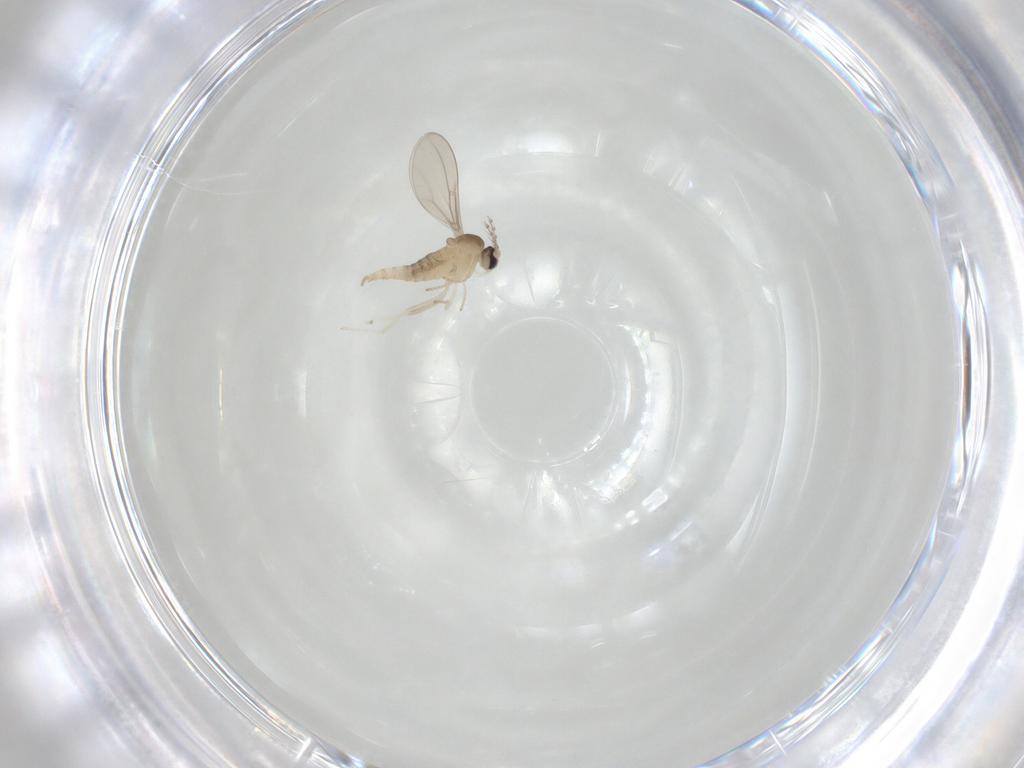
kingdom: Animalia
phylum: Arthropoda
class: Insecta
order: Diptera
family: Cecidomyiidae
